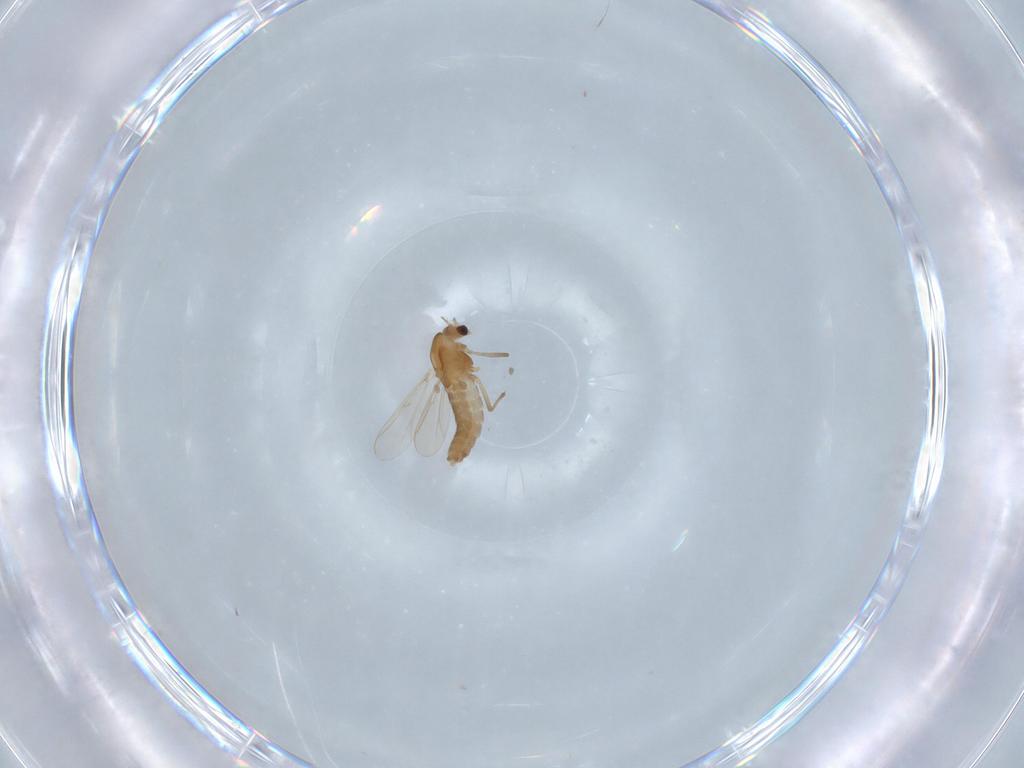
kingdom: Animalia
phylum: Arthropoda
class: Insecta
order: Diptera
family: Chironomidae
